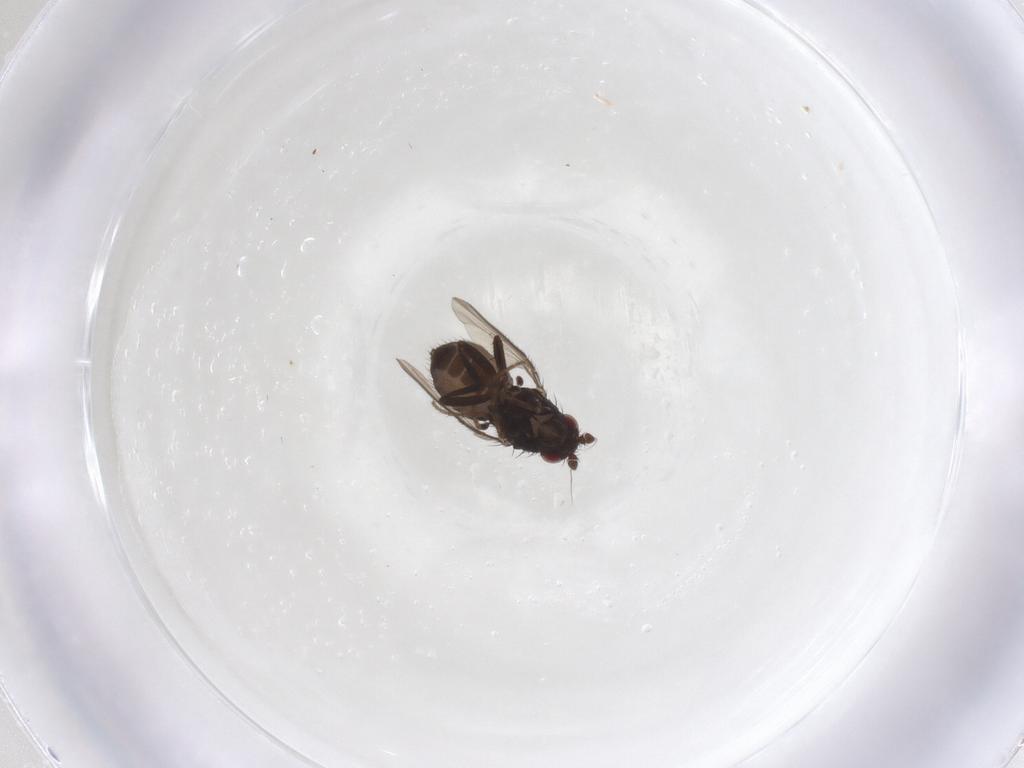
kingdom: Animalia
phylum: Arthropoda
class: Insecta
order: Diptera
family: Sphaeroceridae
